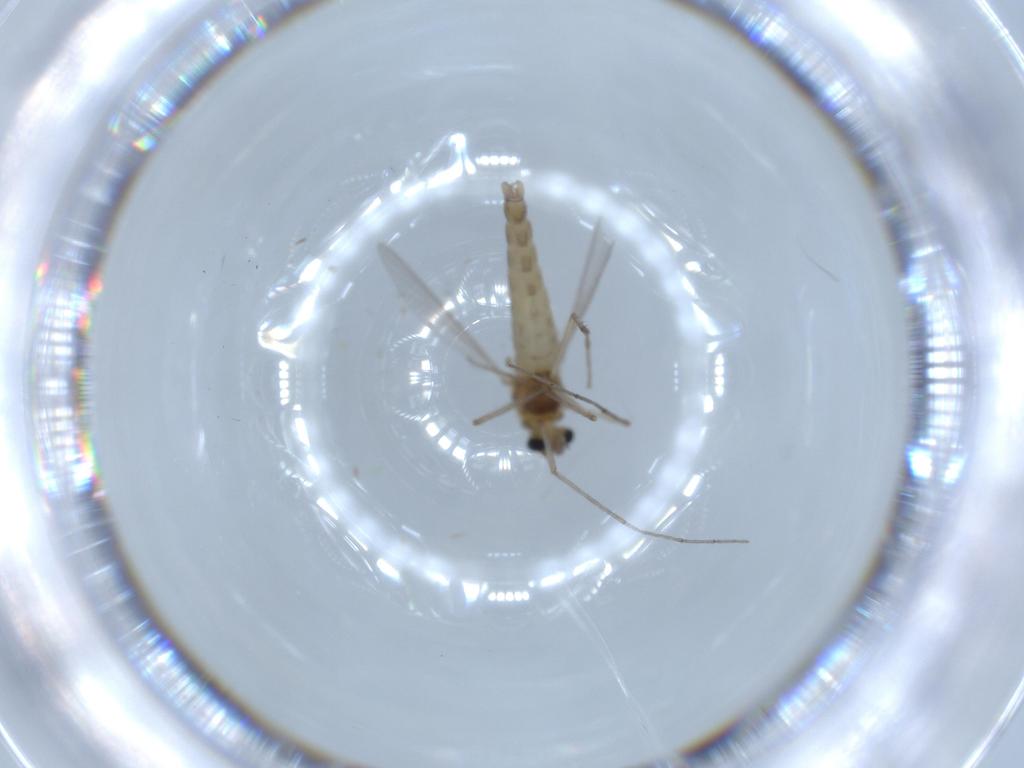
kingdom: Animalia
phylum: Arthropoda
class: Insecta
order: Diptera
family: Chironomidae
